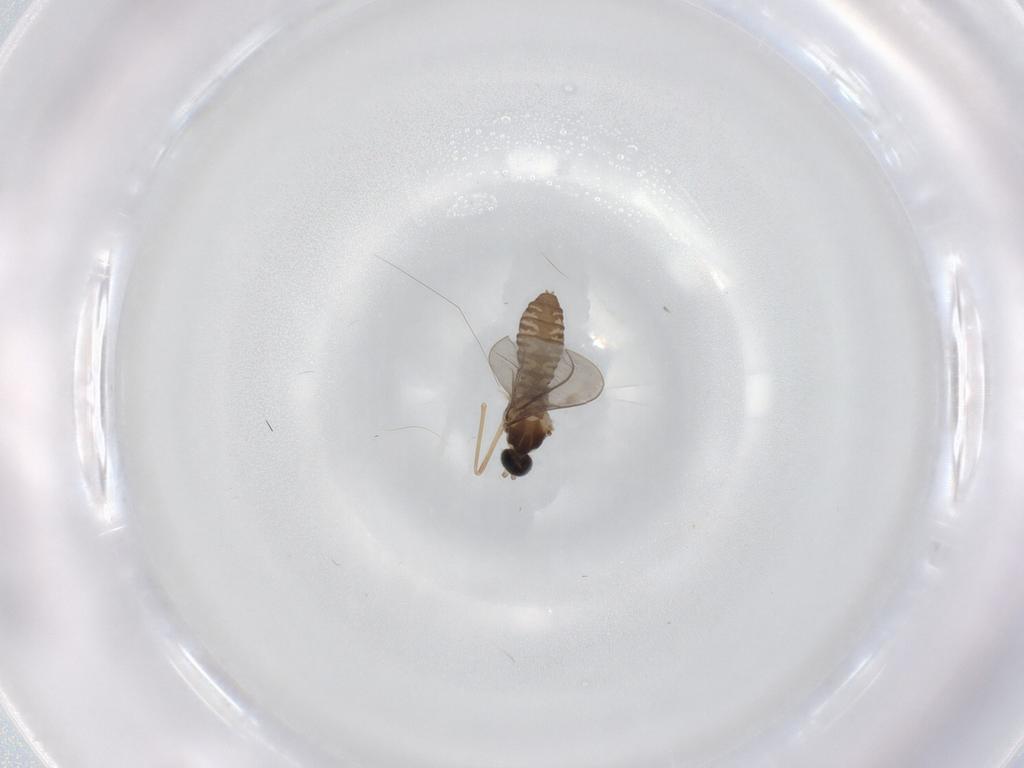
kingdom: Animalia
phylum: Arthropoda
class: Insecta
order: Diptera
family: Cecidomyiidae
